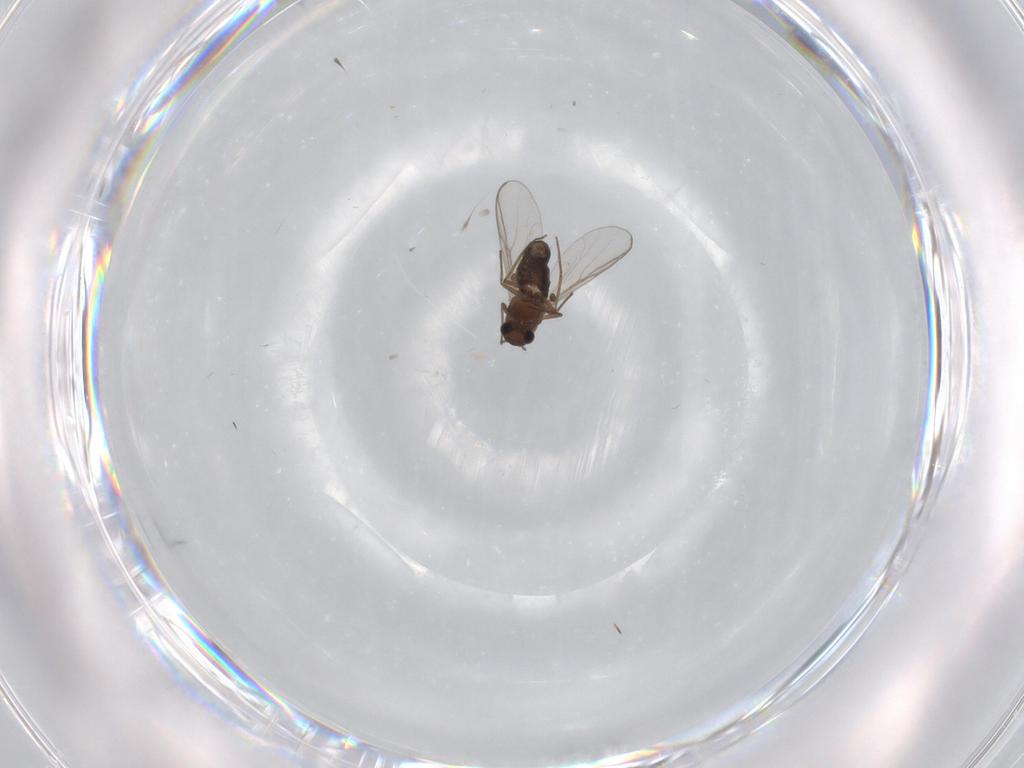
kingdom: Animalia
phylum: Arthropoda
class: Insecta
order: Diptera
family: Chironomidae
